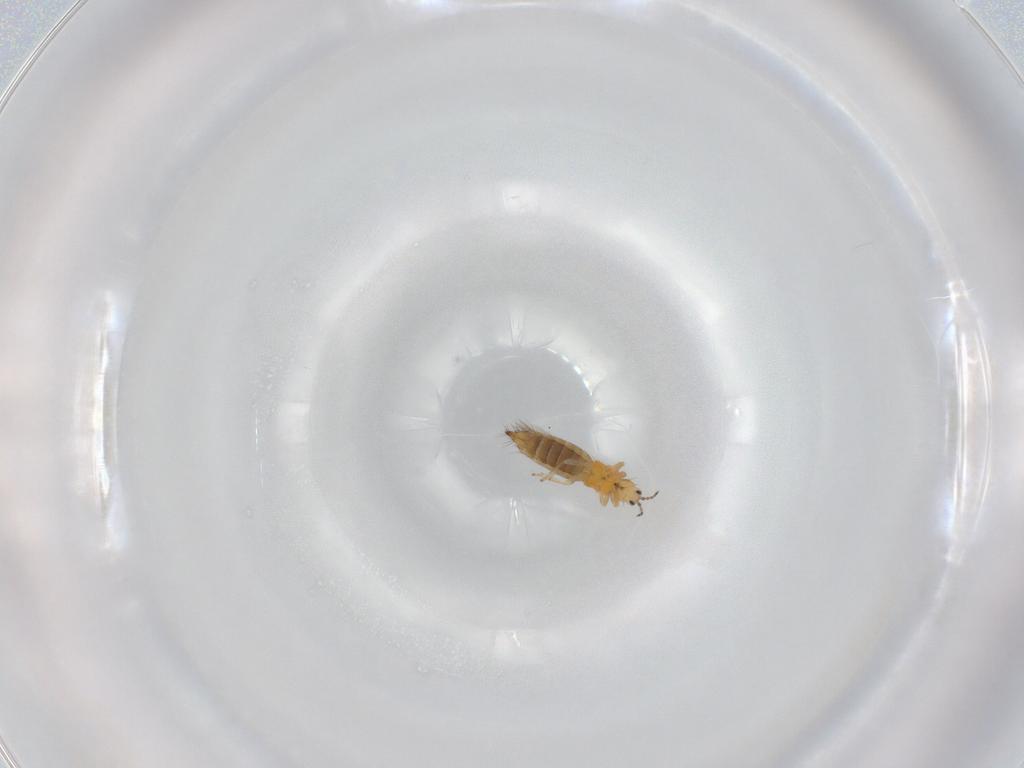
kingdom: Animalia
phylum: Arthropoda
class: Insecta
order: Thysanoptera
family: Thripidae
